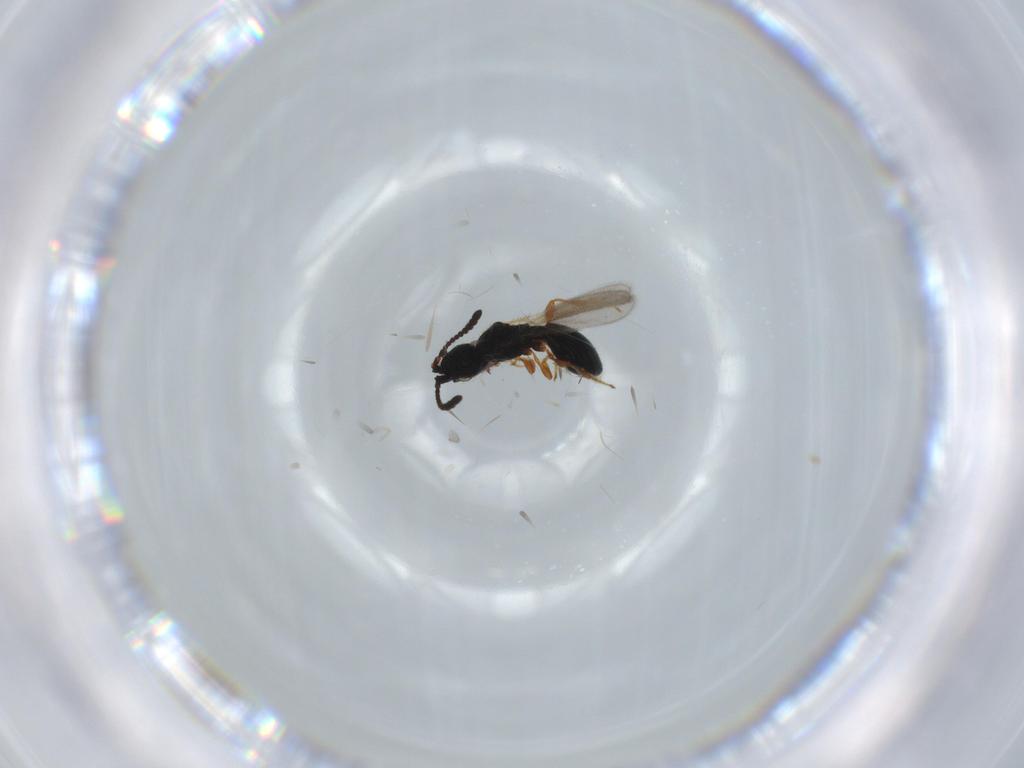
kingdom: Animalia
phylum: Arthropoda
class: Insecta
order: Hymenoptera
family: Diapriidae
